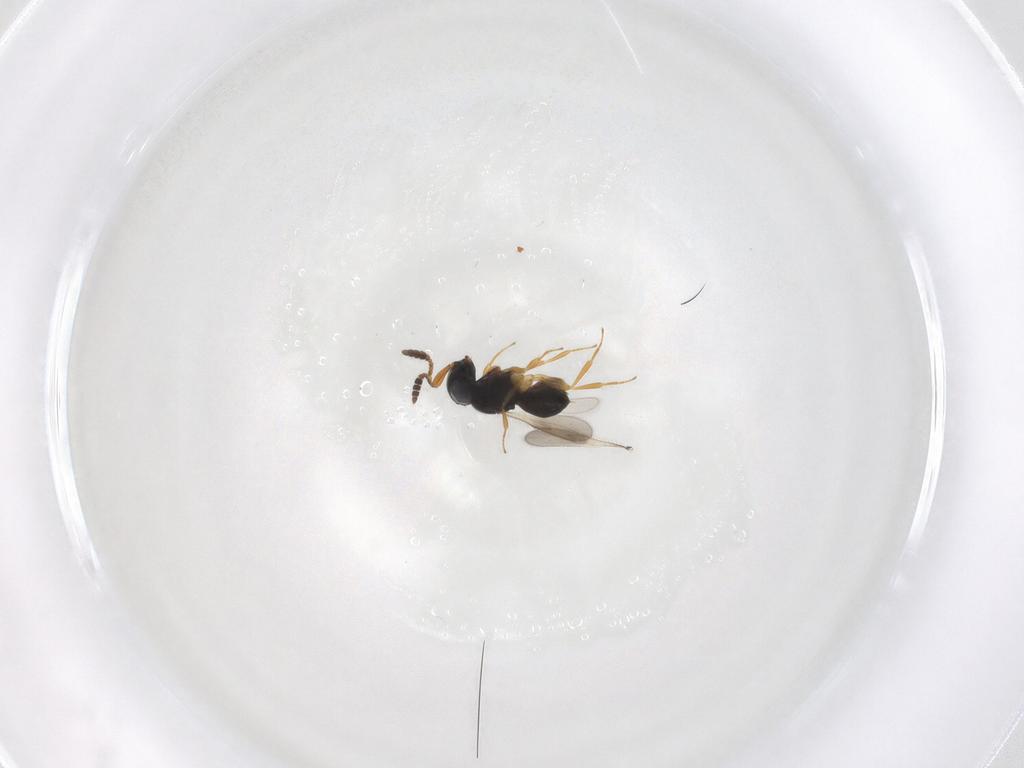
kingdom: Animalia
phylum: Arthropoda
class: Insecta
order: Hymenoptera
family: Scelionidae
